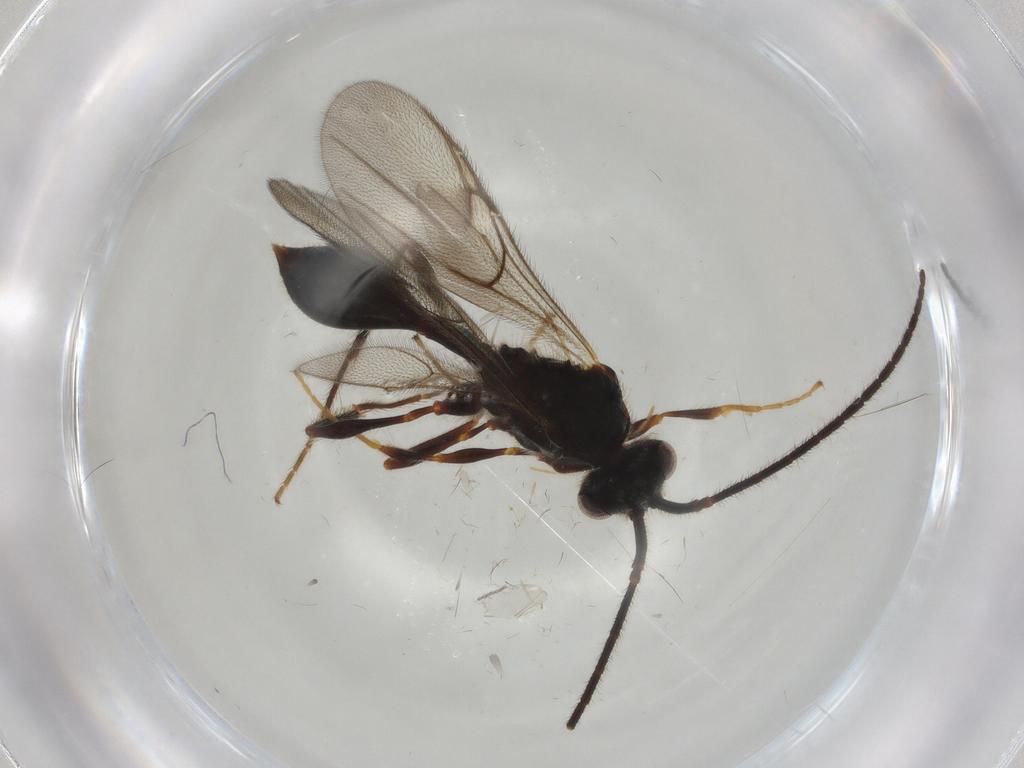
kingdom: Animalia
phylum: Arthropoda
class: Insecta
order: Hymenoptera
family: Diapriidae
